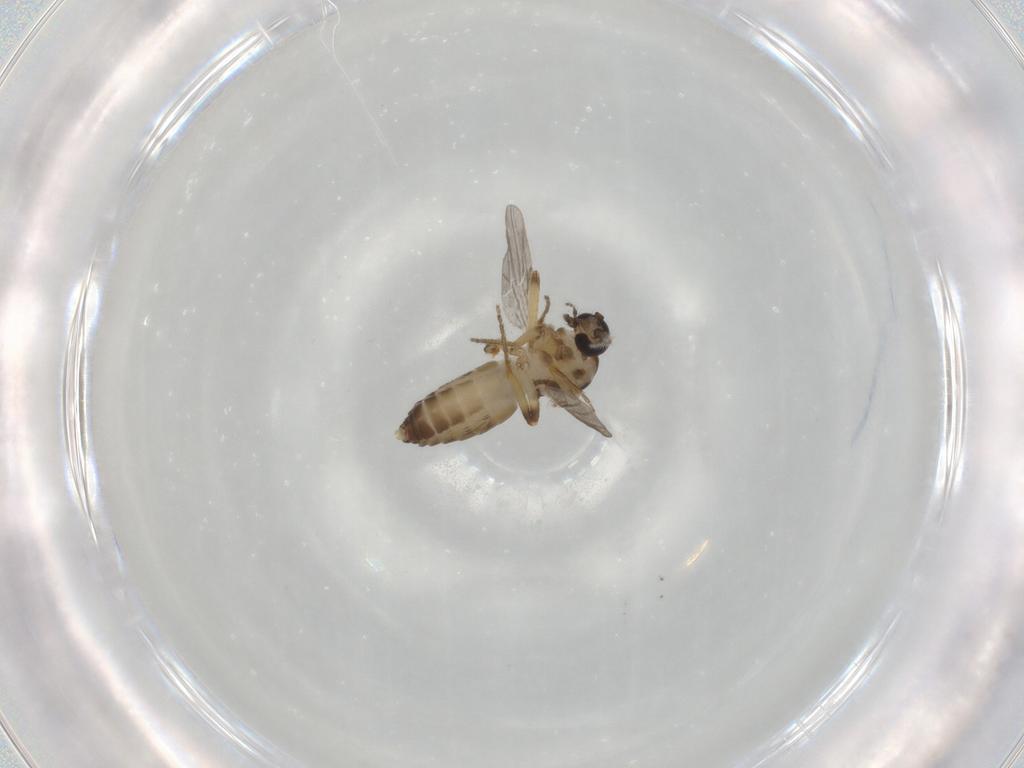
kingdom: Animalia
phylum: Arthropoda
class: Insecta
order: Diptera
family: Ceratopogonidae
